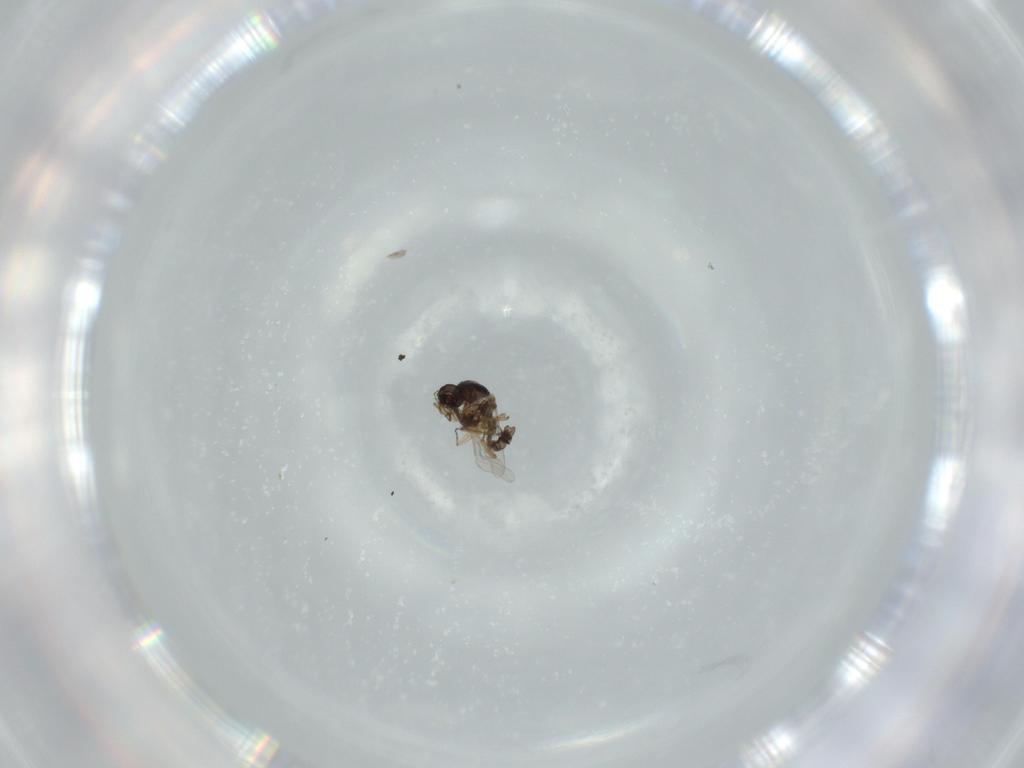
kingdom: Animalia
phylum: Arthropoda
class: Insecta
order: Diptera
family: Ceratopogonidae
